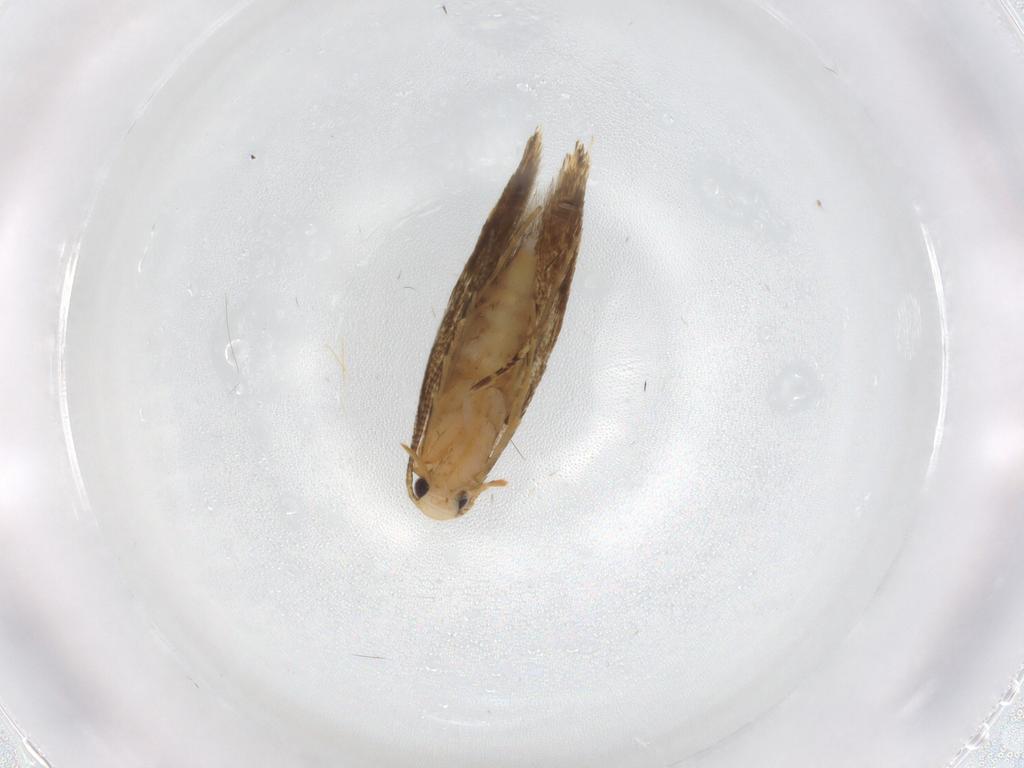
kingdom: Animalia
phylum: Arthropoda
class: Insecta
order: Lepidoptera
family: Tineidae
